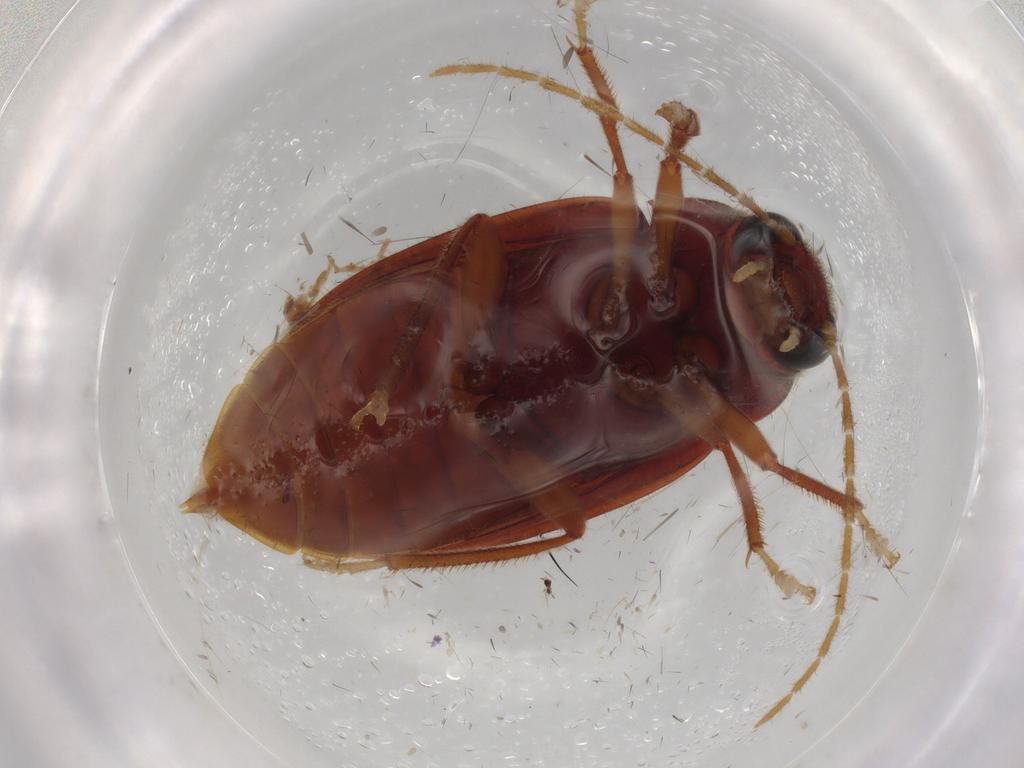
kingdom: Animalia
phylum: Arthropoda
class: Insecta
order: Coleoptera
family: Ptilodactylidae
